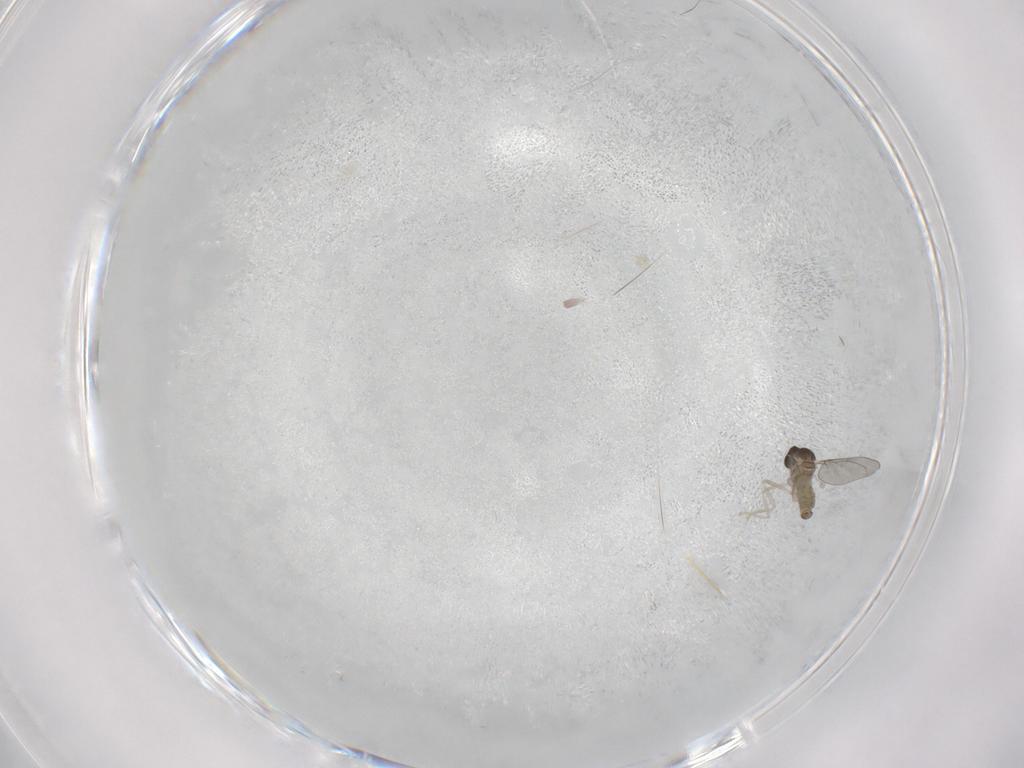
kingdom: Animalia
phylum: Arthropoda
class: Insecta
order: Diptera
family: Cecidomyiidae
